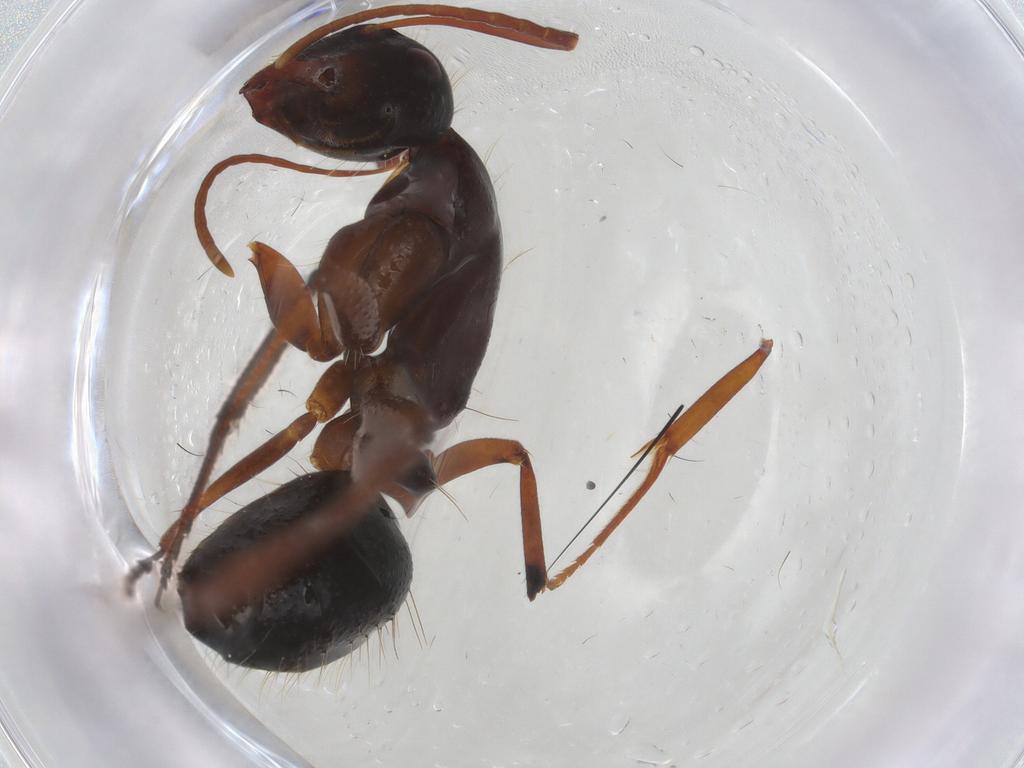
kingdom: Animalia
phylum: Arthropoda
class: Insecta
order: Hymenoptera
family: Formicidae
